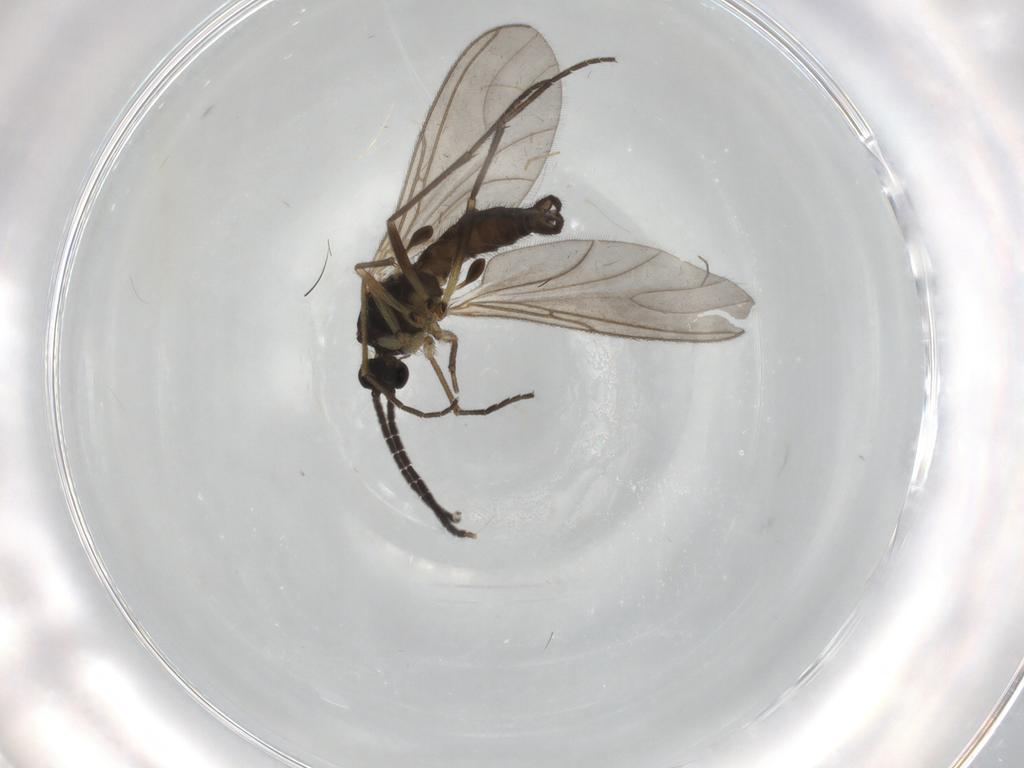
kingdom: Animalia
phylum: Arthropoda
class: Insecta
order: Diptera
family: Sciaridae
